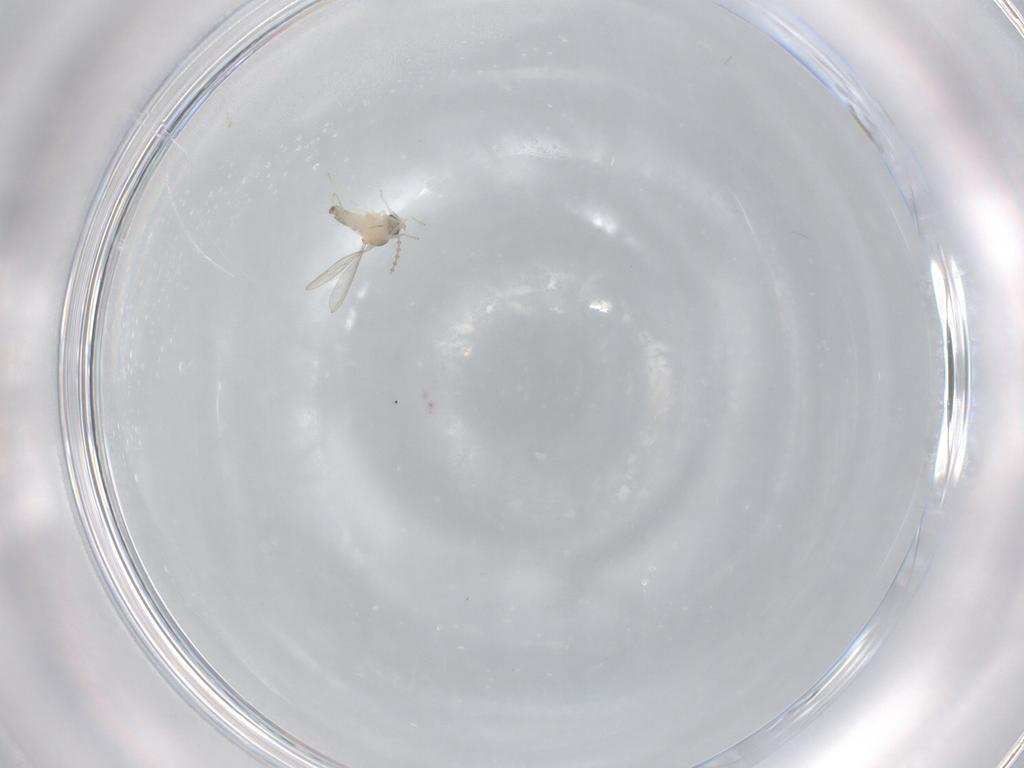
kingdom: Animalia
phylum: Arthropoda
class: Insecta
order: Diptera
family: Cecidomyiidae
